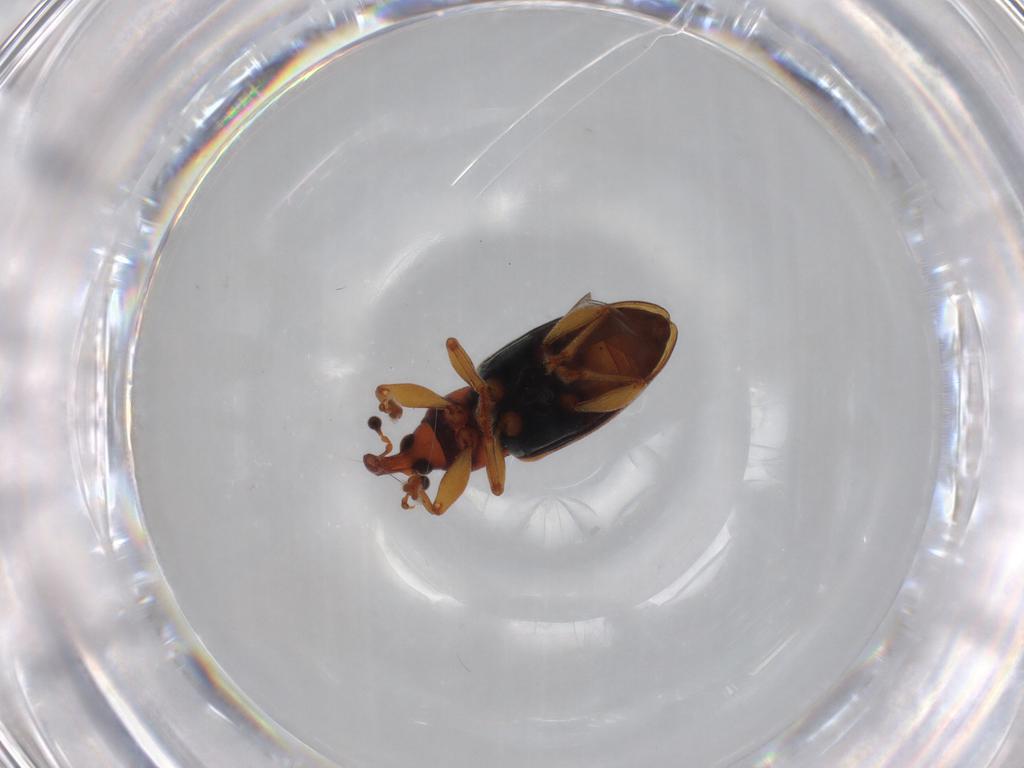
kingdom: Animalia
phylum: Arthropoda
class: Insecta
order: Coleoptera
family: Curculionidae
